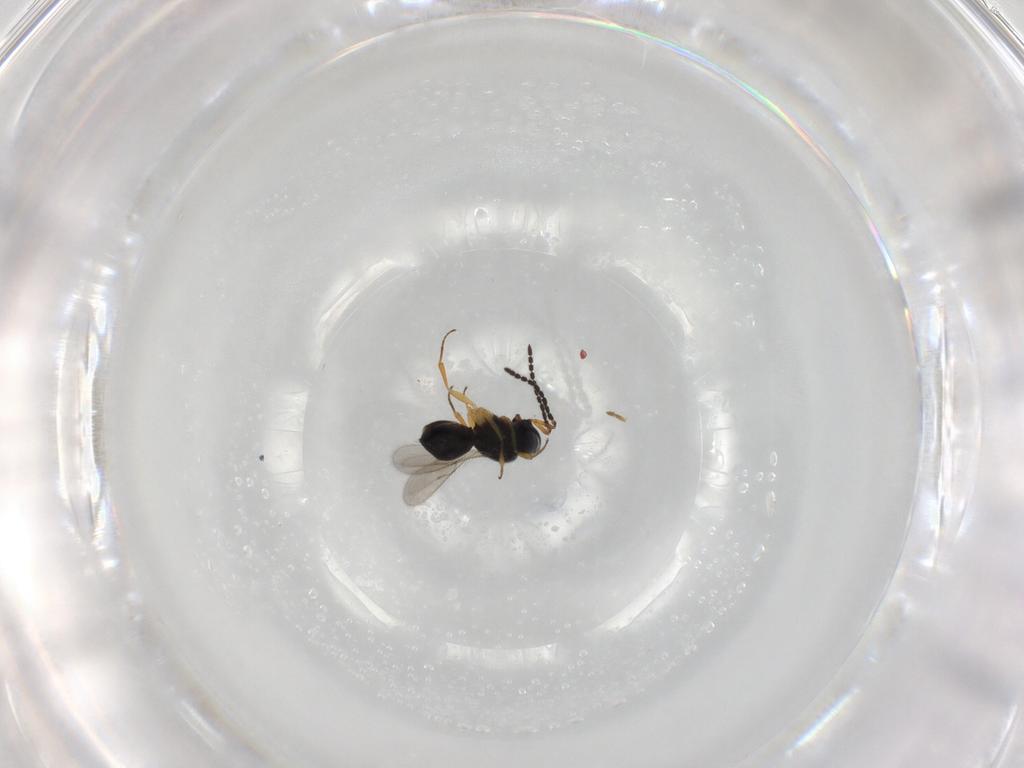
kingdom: Animalia
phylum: Arthropoda
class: Insecta
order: Hymenoptera
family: Scelionidae
